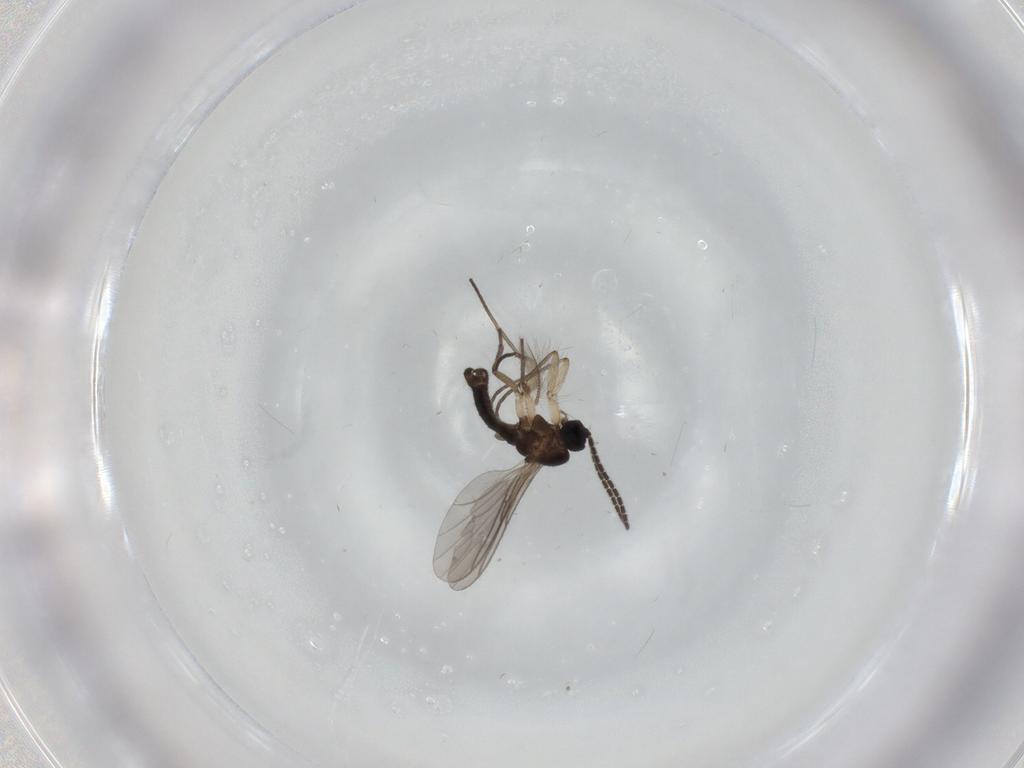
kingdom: Animalia
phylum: Arthropoda
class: Insecta
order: Diptera
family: Sciaridae
